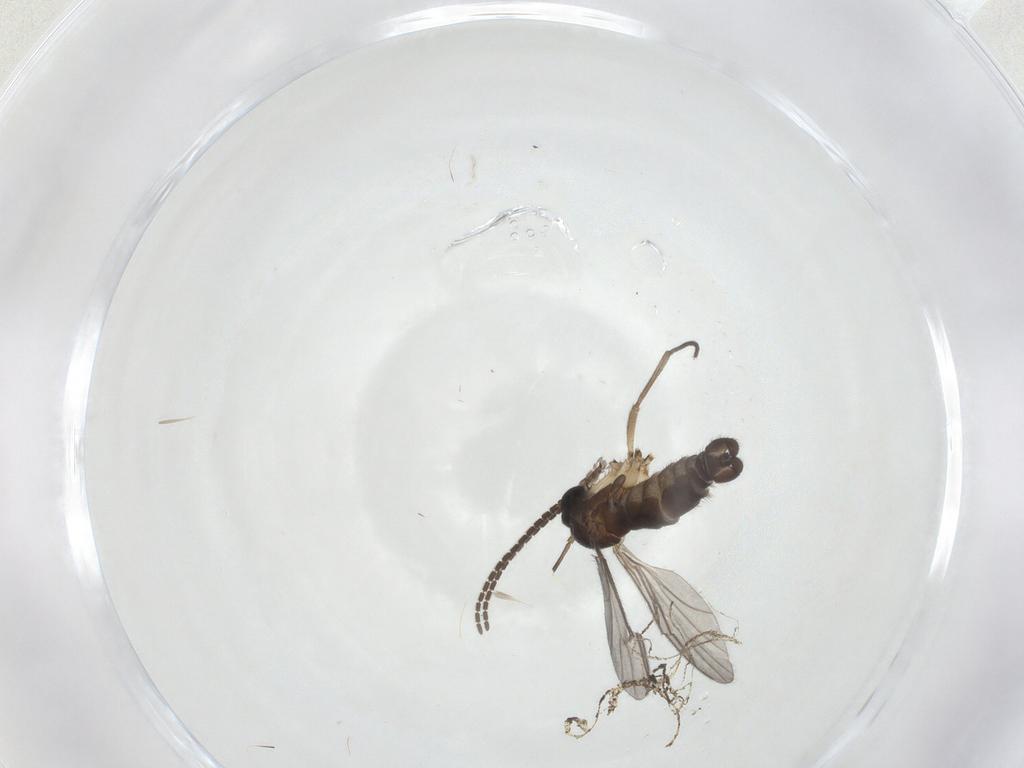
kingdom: Animalia
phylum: Arthropoda
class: Insecta
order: Diptera
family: Sciaridae
